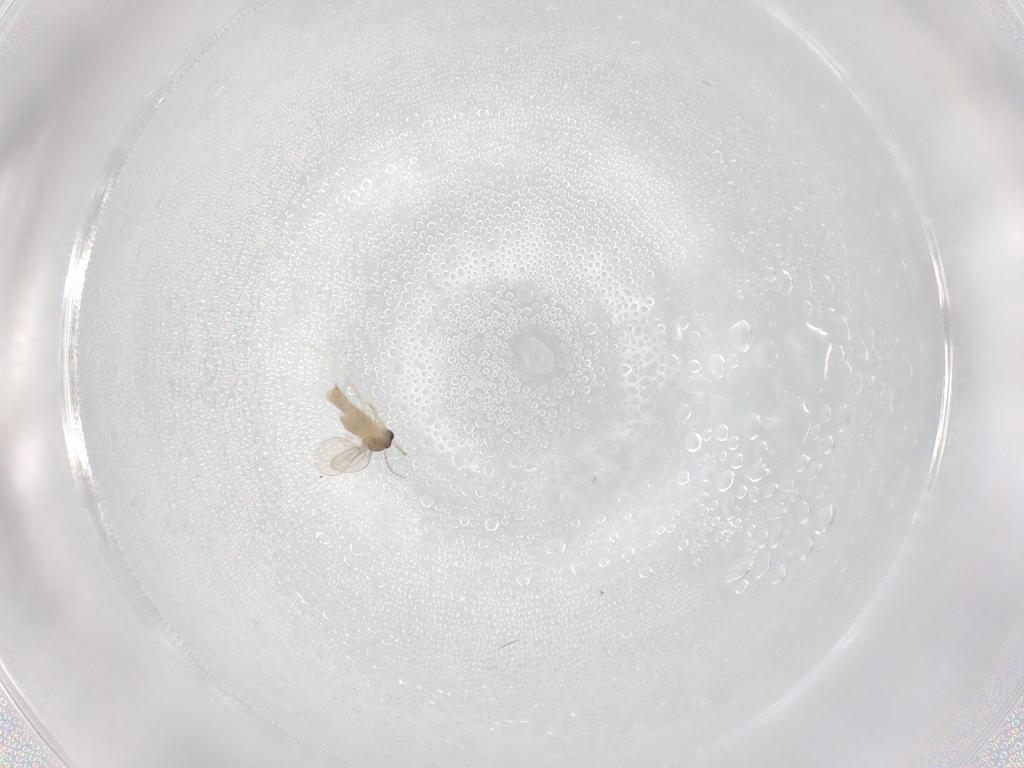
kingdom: Animalia
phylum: Arthropoda
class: Insecta
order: Diptera
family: Cecidomyiidae
